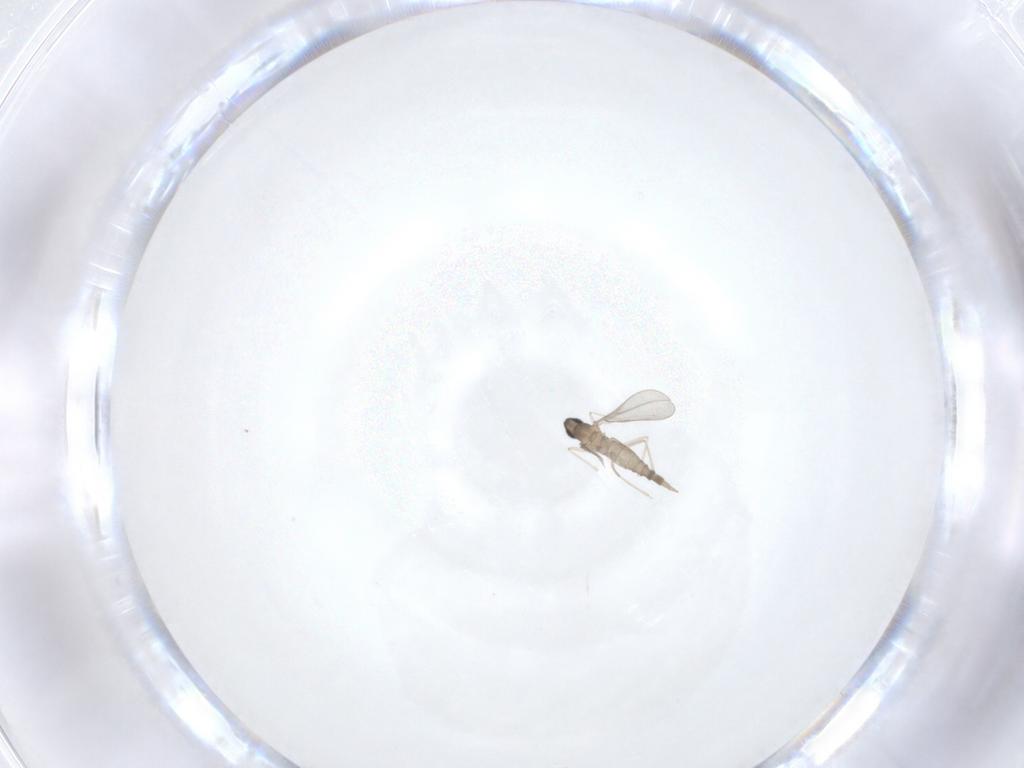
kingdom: Animalia
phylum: Arthropoda
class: Insecta
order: Diptera
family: Cecidomyiidae
